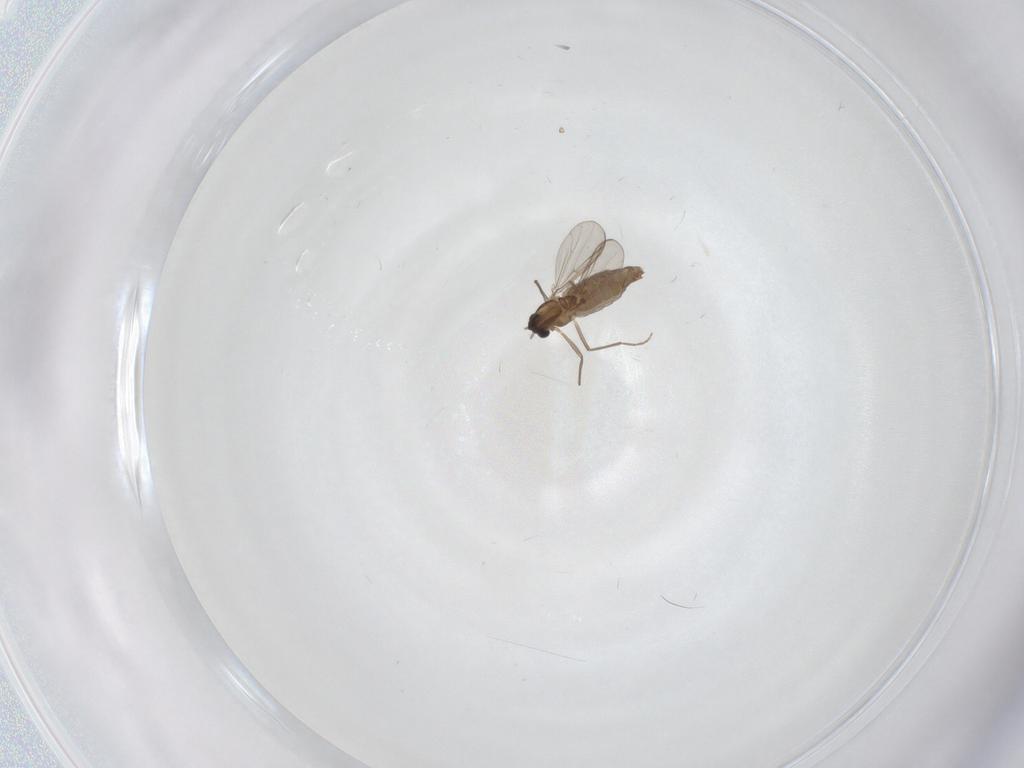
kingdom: Animalia
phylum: Arthropoda
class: Insecta
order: Diptera
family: Chironomidae
